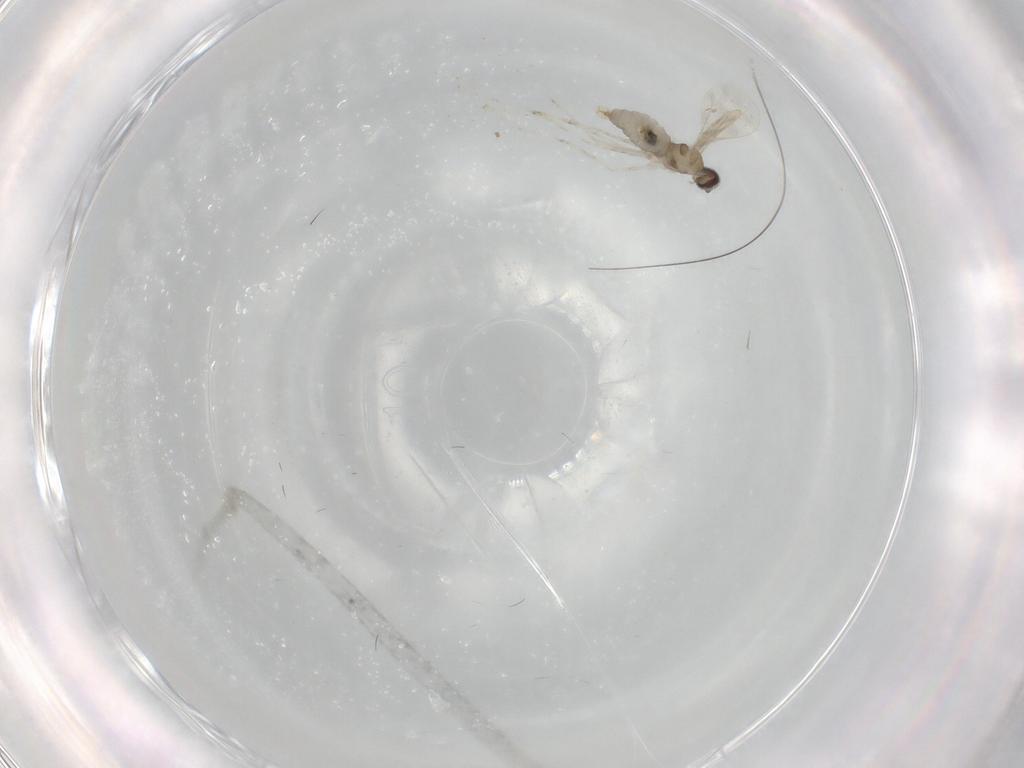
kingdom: Animalia
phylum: Arthropoda
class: Insecta
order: Diptera
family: Cecidomyiidae
